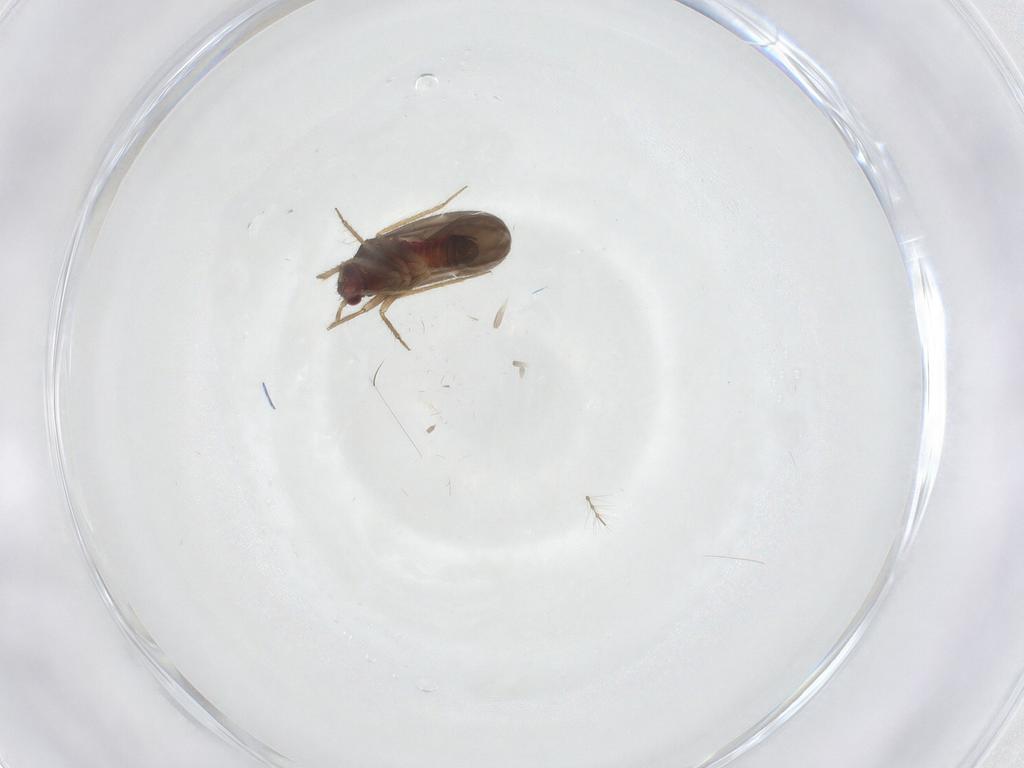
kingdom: Animalia
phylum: Arthropoda
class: Insecta
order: Hemiptera
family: Ceratocombidae
